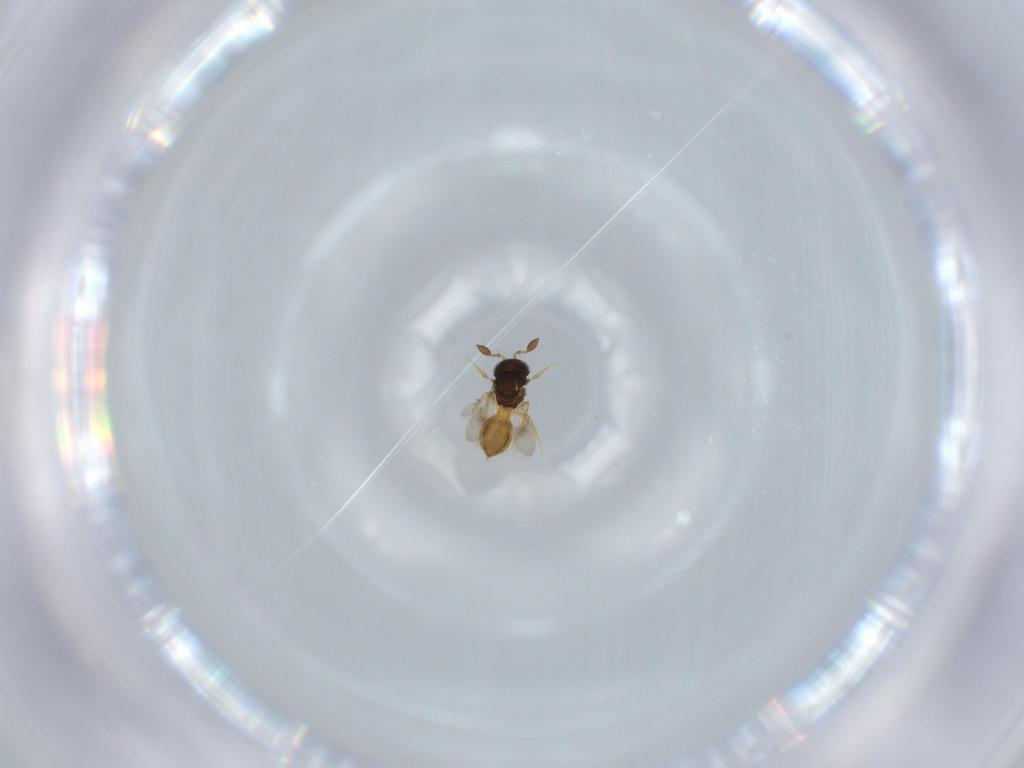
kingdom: Animalia
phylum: Arthropoda
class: Insecta
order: Hymenoptera
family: Scelionidae
